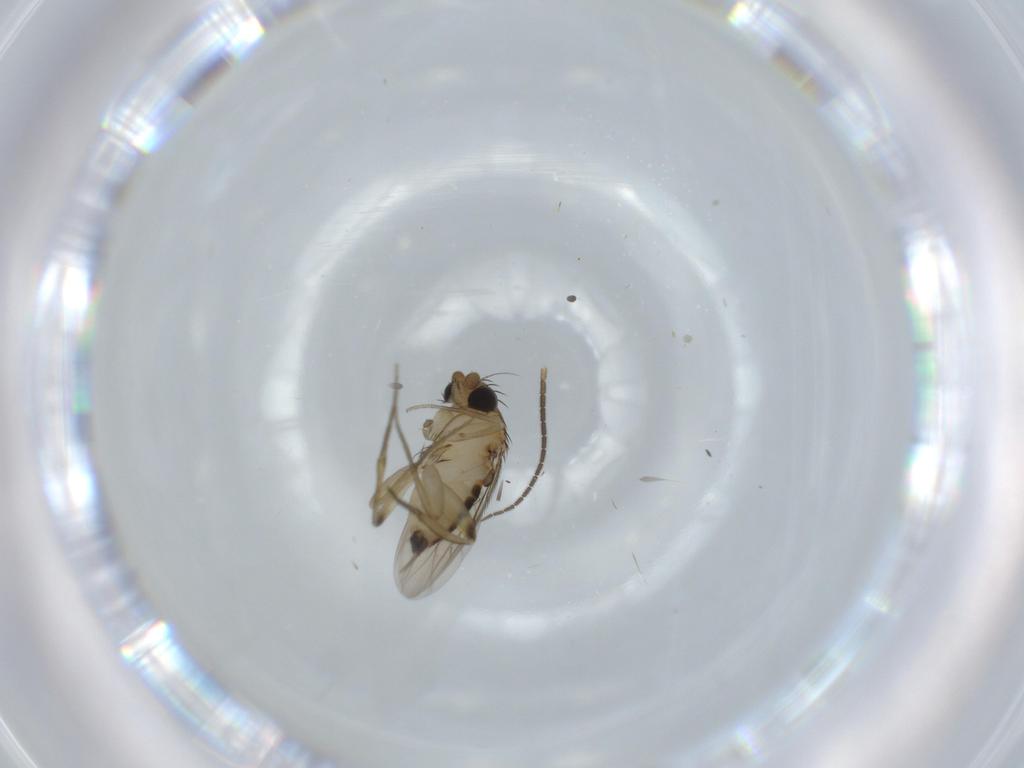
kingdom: Animalia
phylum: Arthropoda
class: Insecta
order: Diptera
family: Phoridae
